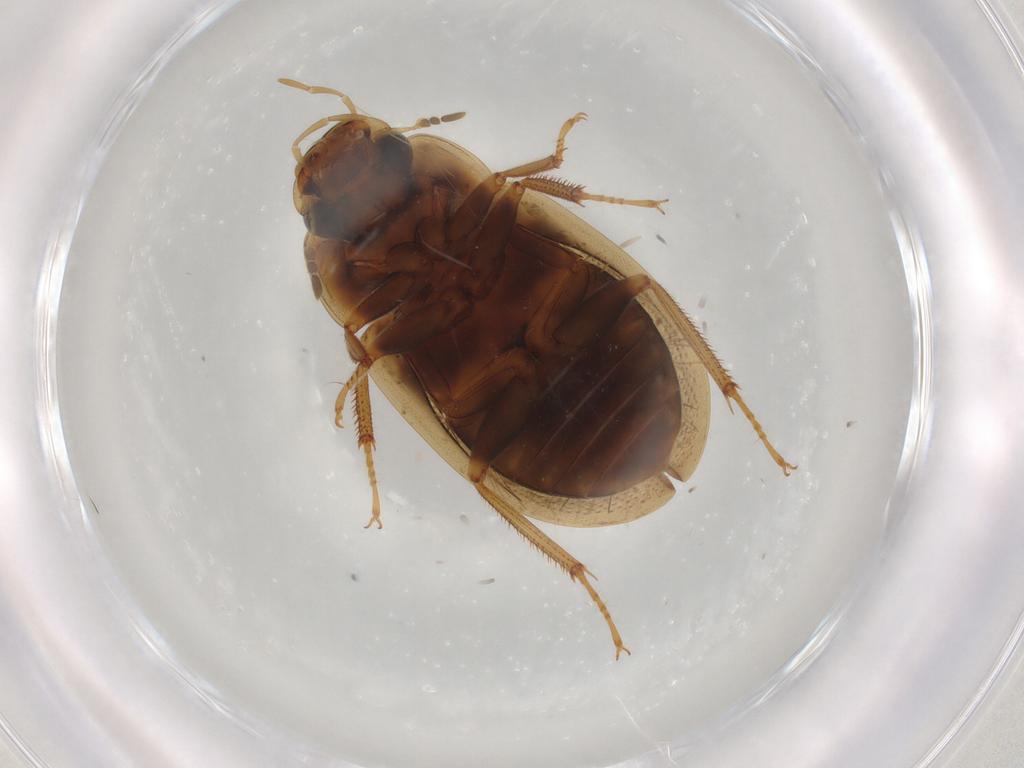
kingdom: Animalia
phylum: Arthropoda
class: Insecta
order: Coleoptera
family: Hydrophilidae
